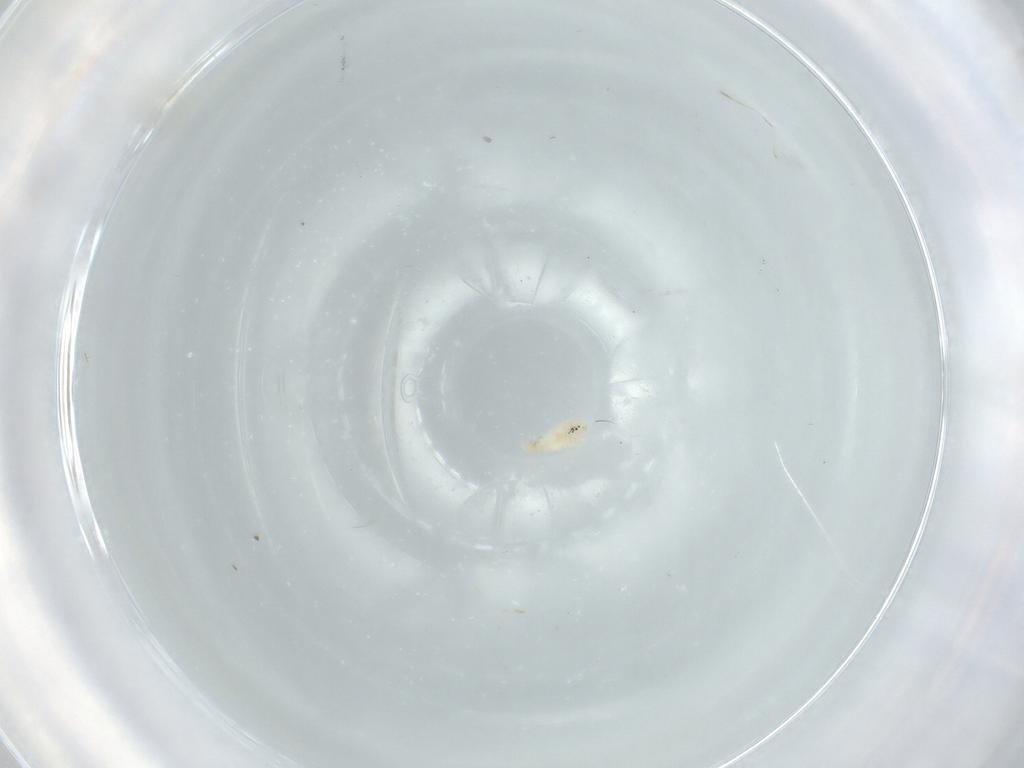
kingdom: Animalia
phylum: Arthropoda
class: Insecta
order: Diptera
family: Cecidomyiidae
